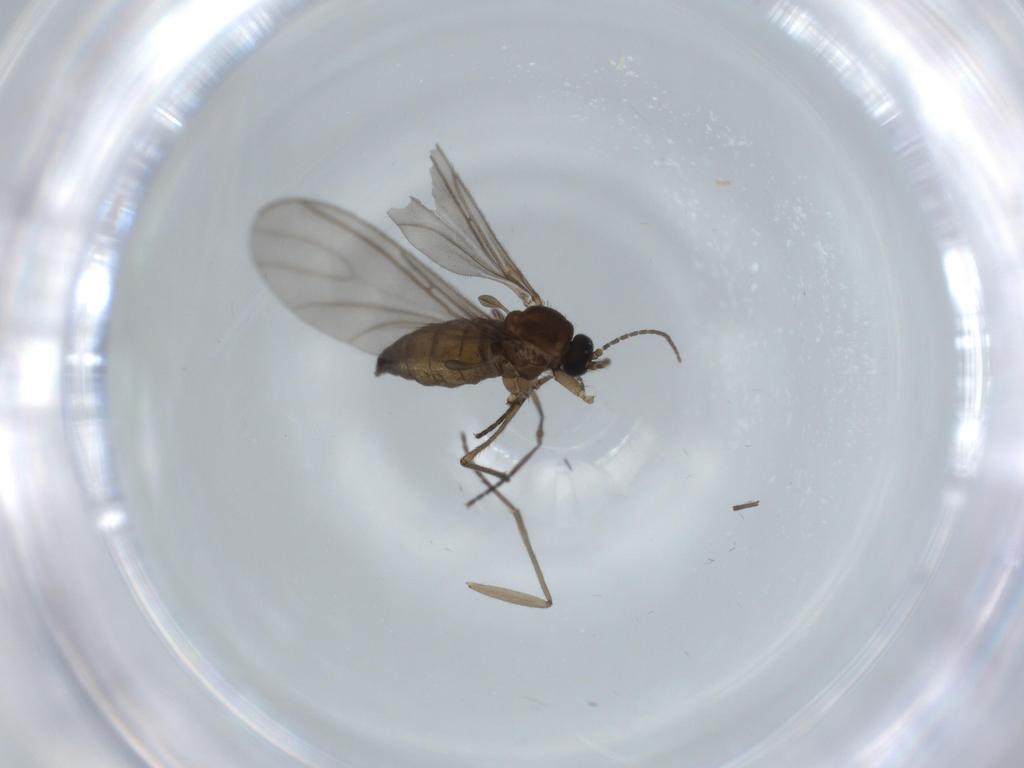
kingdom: Animalia
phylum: Arthropoda
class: Insecta
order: Diptera
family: Sciaridae
